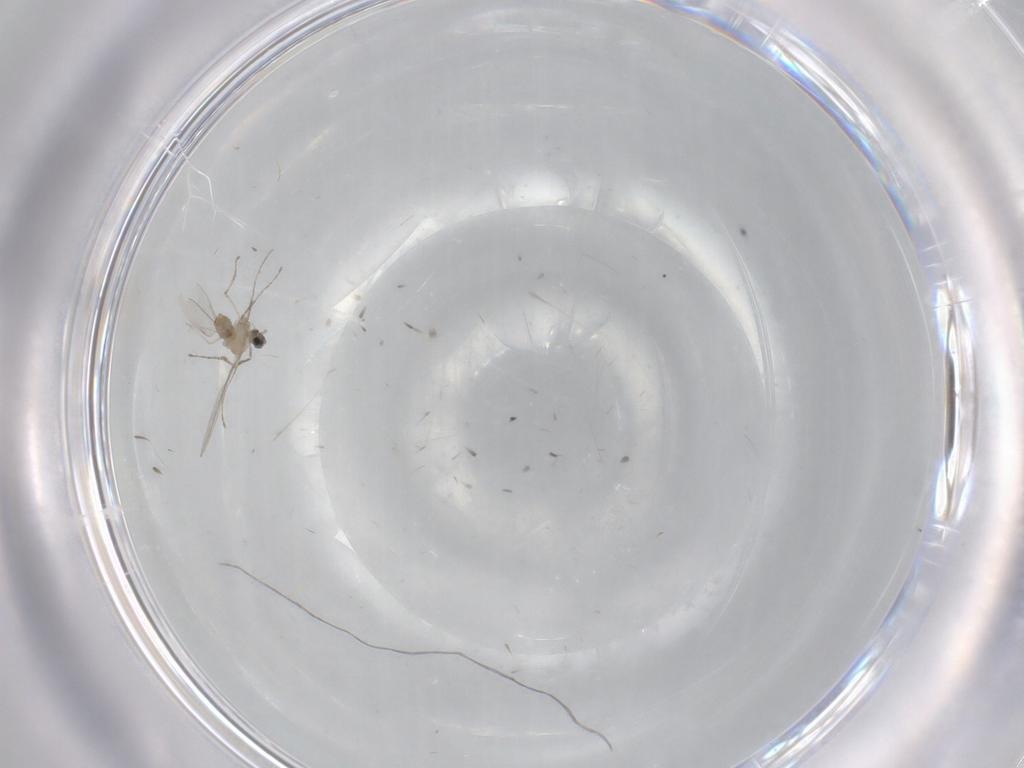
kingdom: Animalia
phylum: Arthropoda
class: Insecta
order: Diptera
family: Cecidomyiidae
